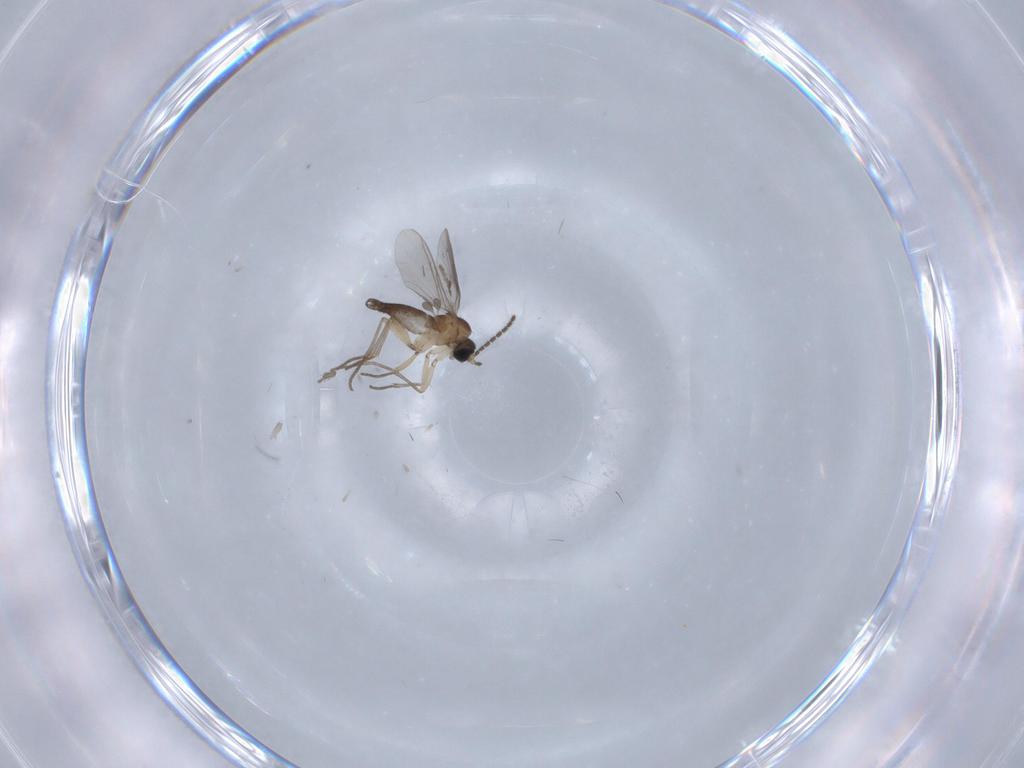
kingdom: Animalia
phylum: Arthropoda
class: Insecta
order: Diptera
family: Sciaridae
